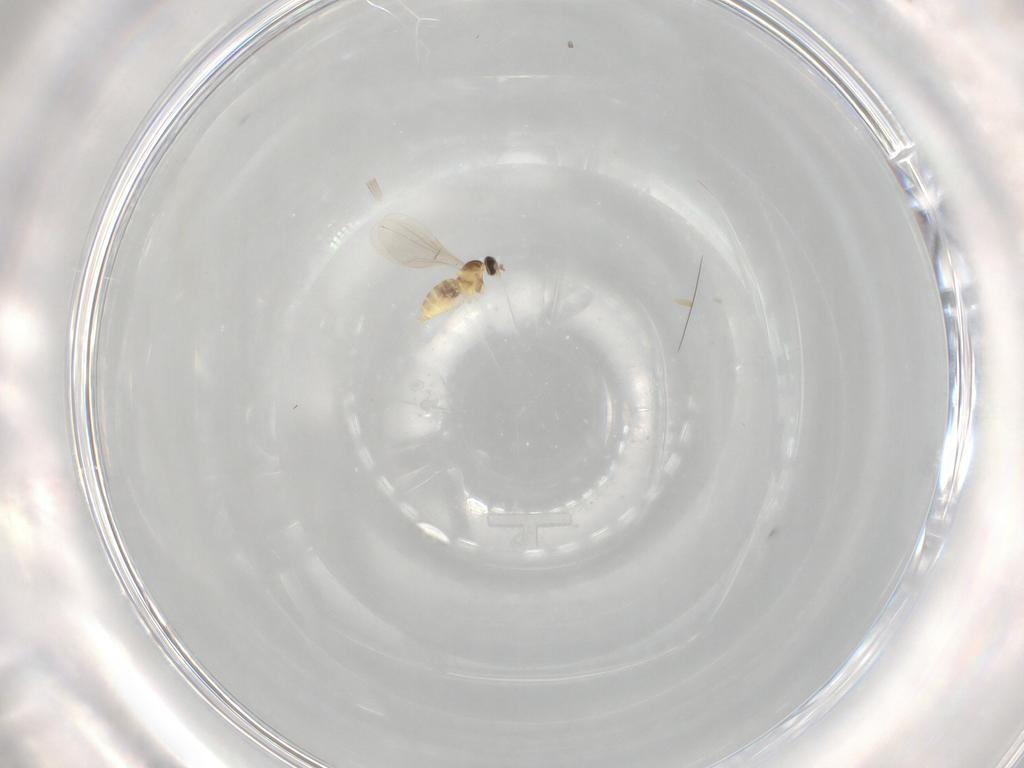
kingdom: Animalia
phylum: Arthropoda
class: Insecta
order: Diptera
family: Cecidomyiidae
